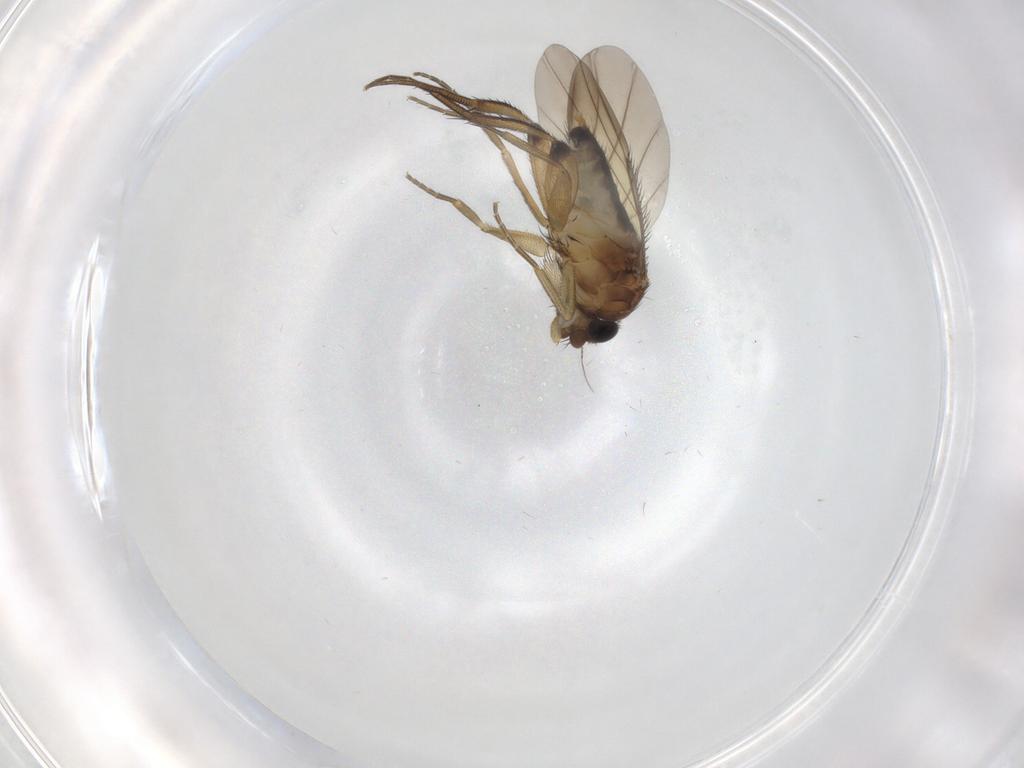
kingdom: Animalia
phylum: Arthropoda
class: Insecta
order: Diptera
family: Phoridae
